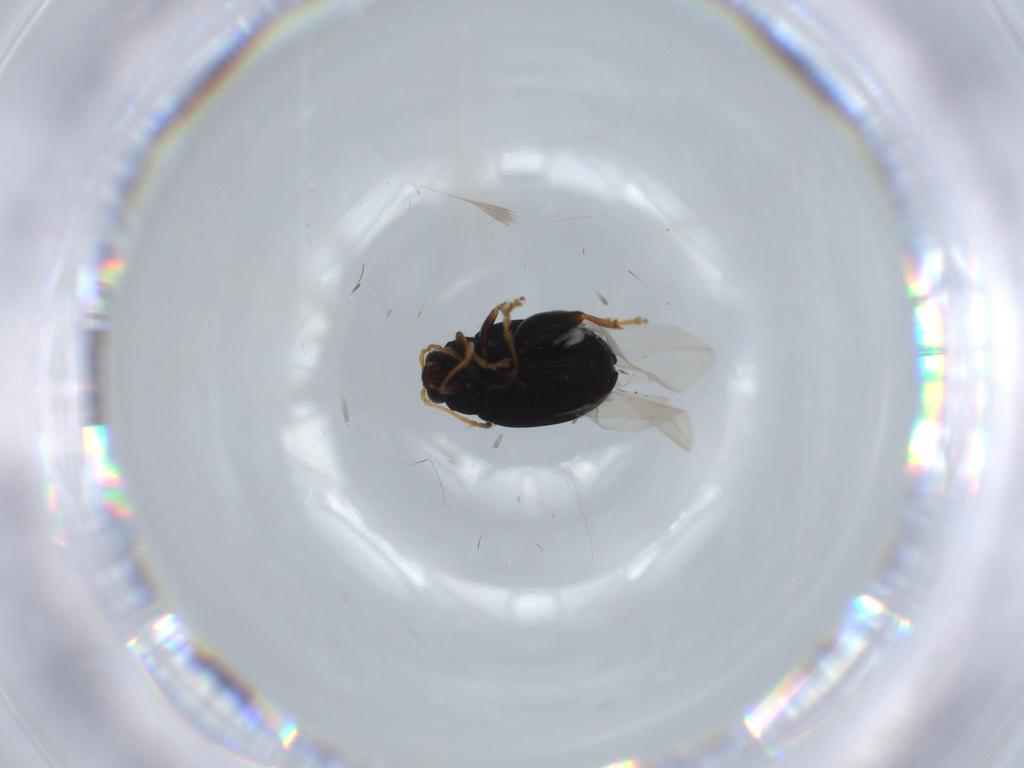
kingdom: Animalia
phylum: Arthropoda
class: Insecta
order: Coleoptera
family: Chrysomelidae
